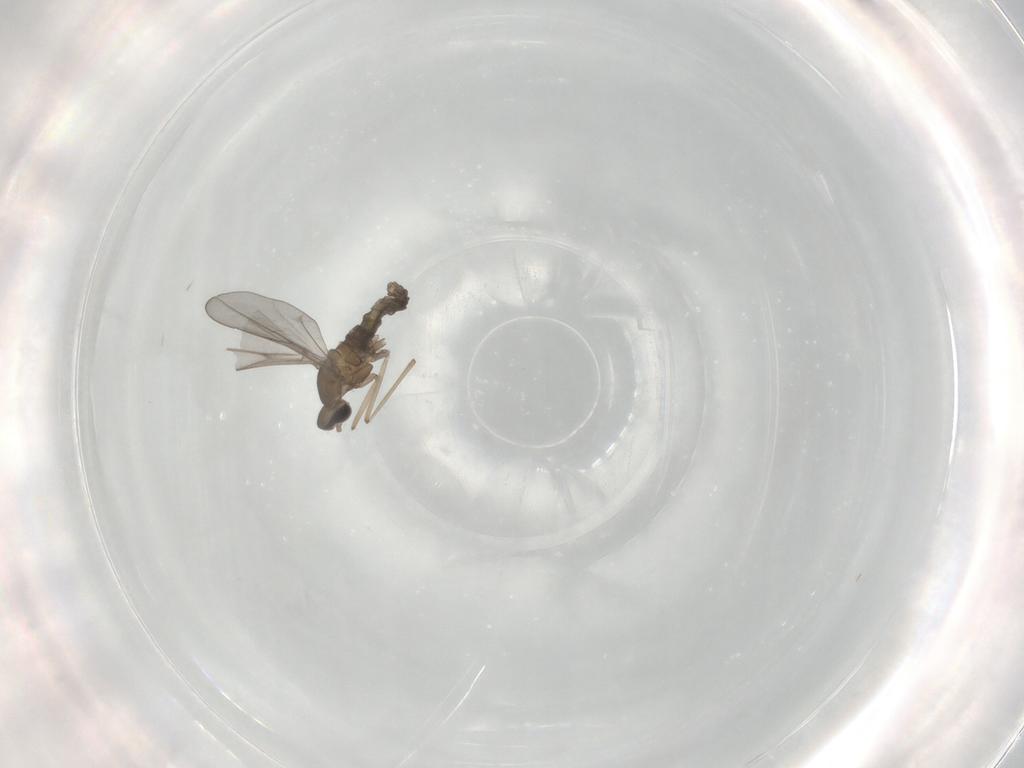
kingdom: Animalia
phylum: Arthropoda
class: Insecta
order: Diptera
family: Cecidomyiidae
